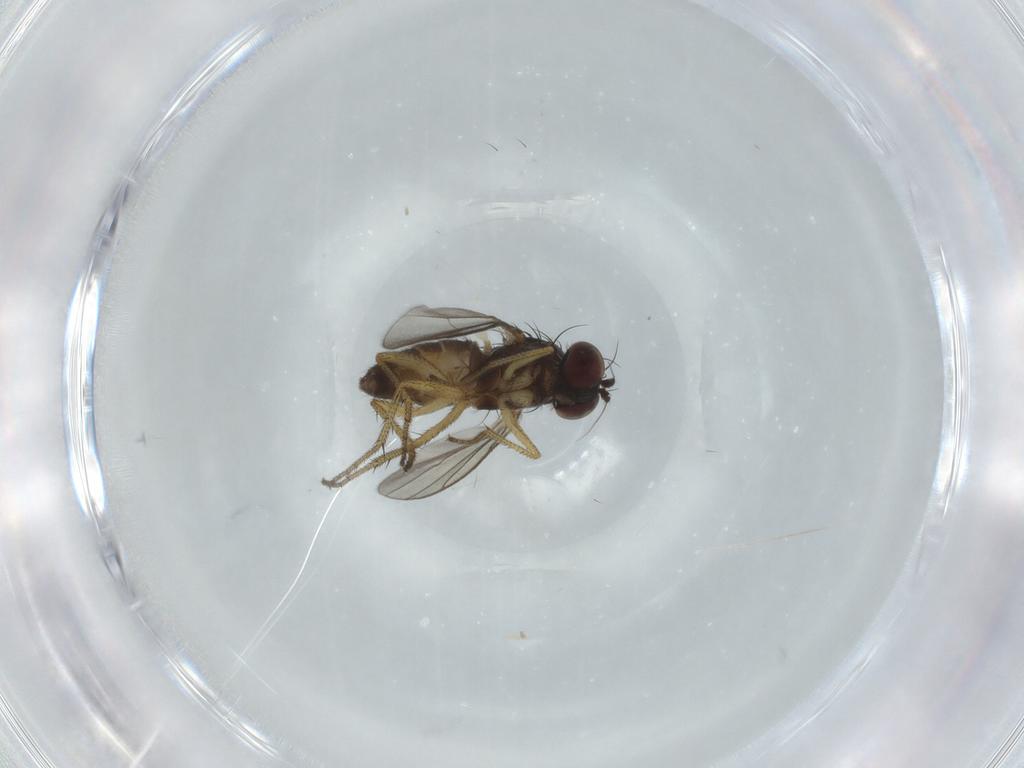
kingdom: Animalia
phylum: Arthropoda
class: Insecta
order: Diptera
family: Dolichopodidae
